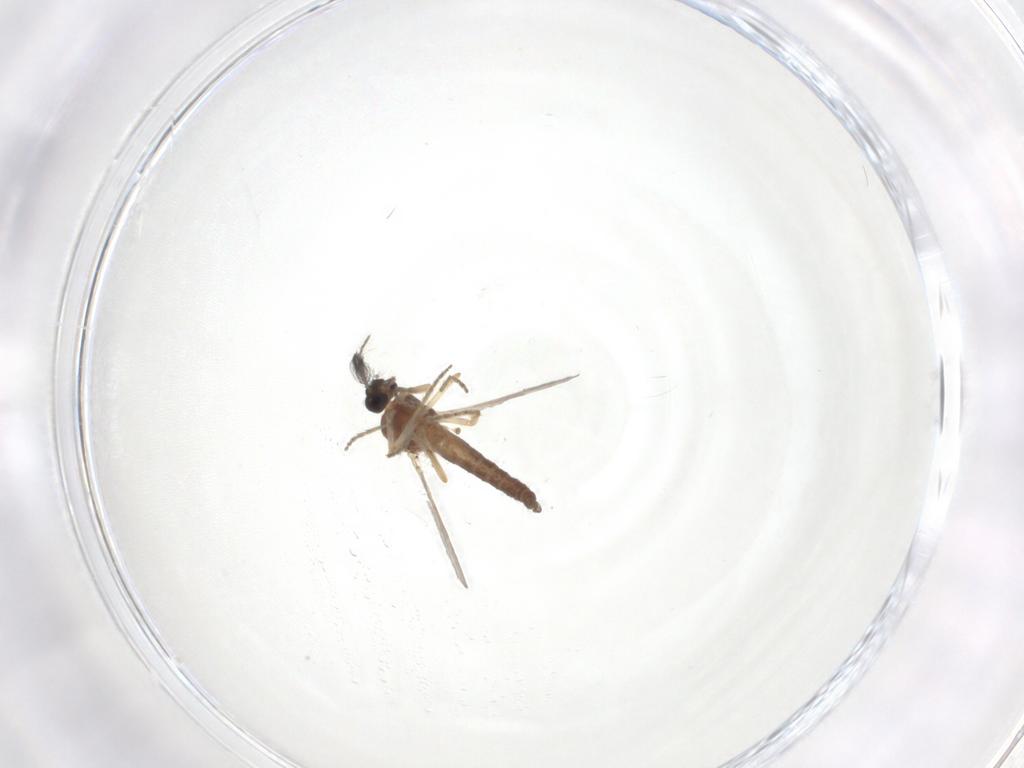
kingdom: Animalia
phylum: Arthropoda
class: Insecta
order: Diptera
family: Ceratopogonidae
